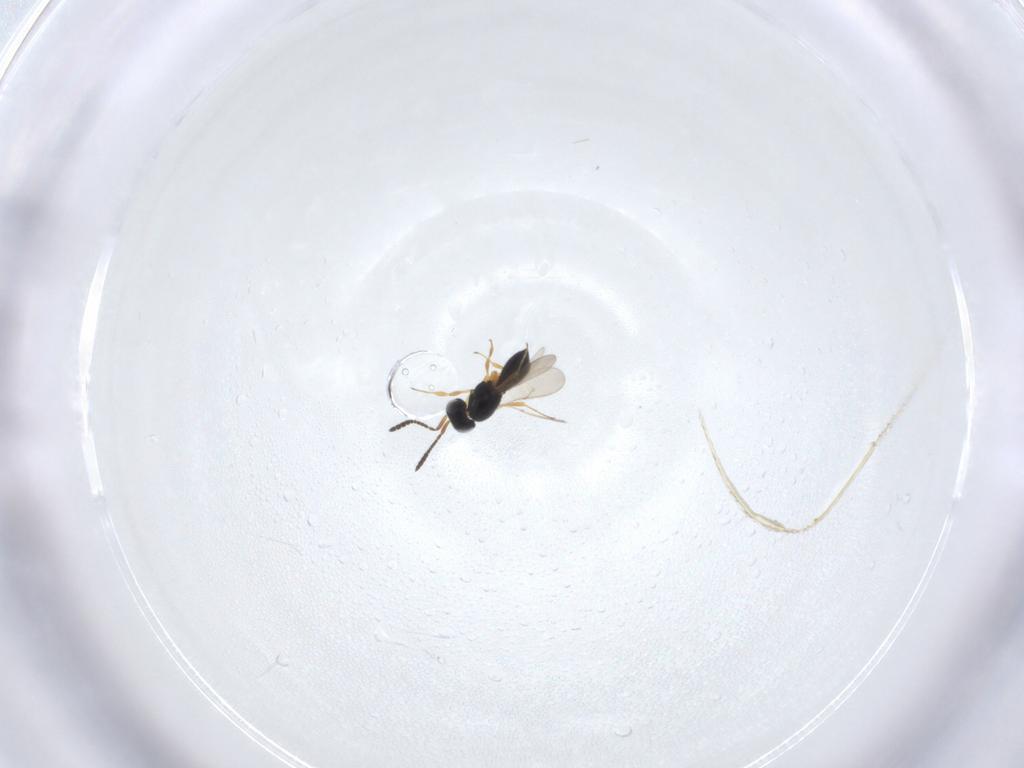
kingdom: Animalia
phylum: Arthropoda
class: Insecta
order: Hymenoptera
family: Scelionidae
